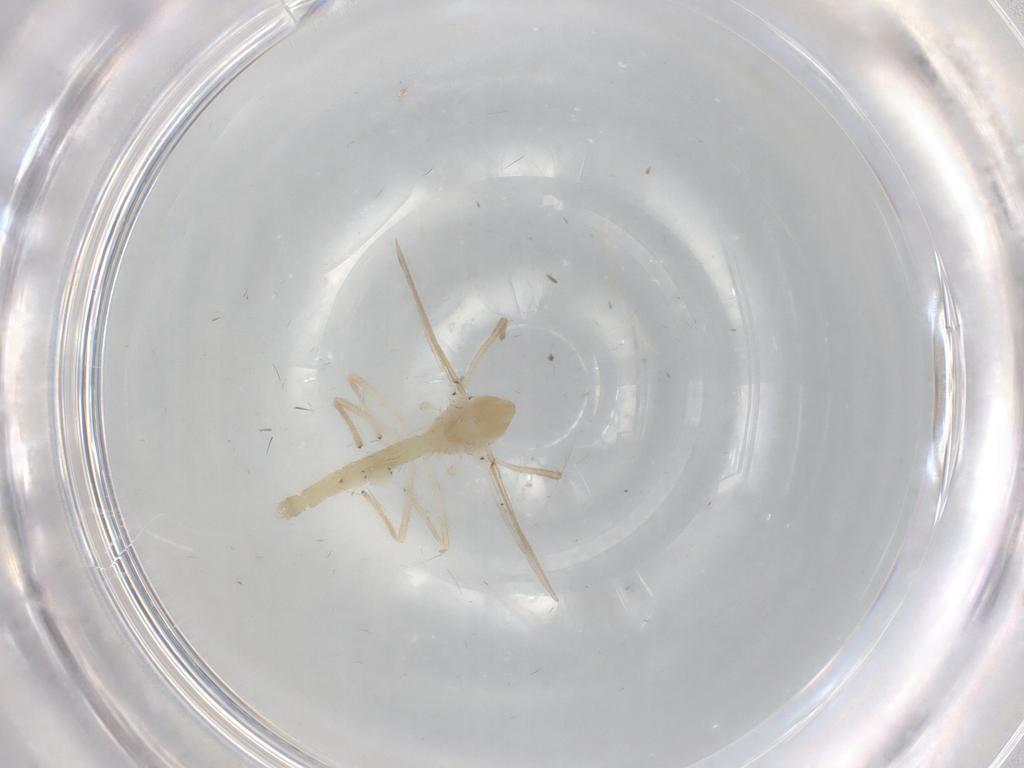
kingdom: Animalia
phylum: Arthropoda
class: Insecta
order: Diptera
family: Chironomidae
